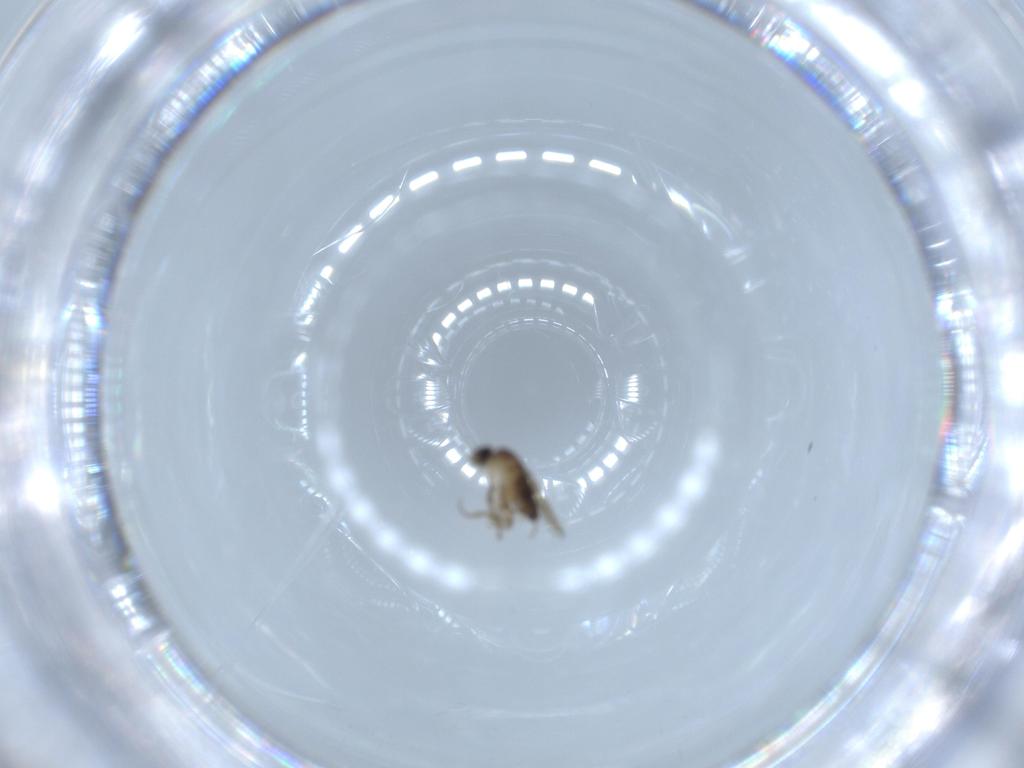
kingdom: Animalia
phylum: Arthropoda
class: Insecta
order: Diptera
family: Phoridae
